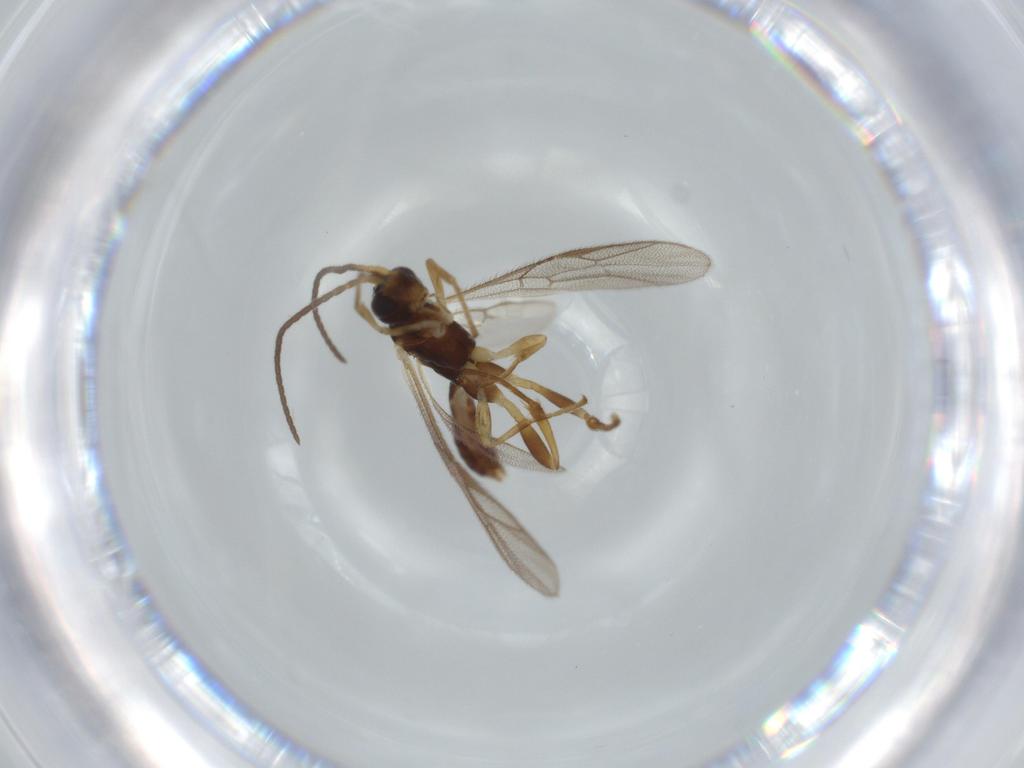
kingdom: Animalia
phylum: Arthropoda
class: Insecta
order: Hymenoptera
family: Ichneumonidae
